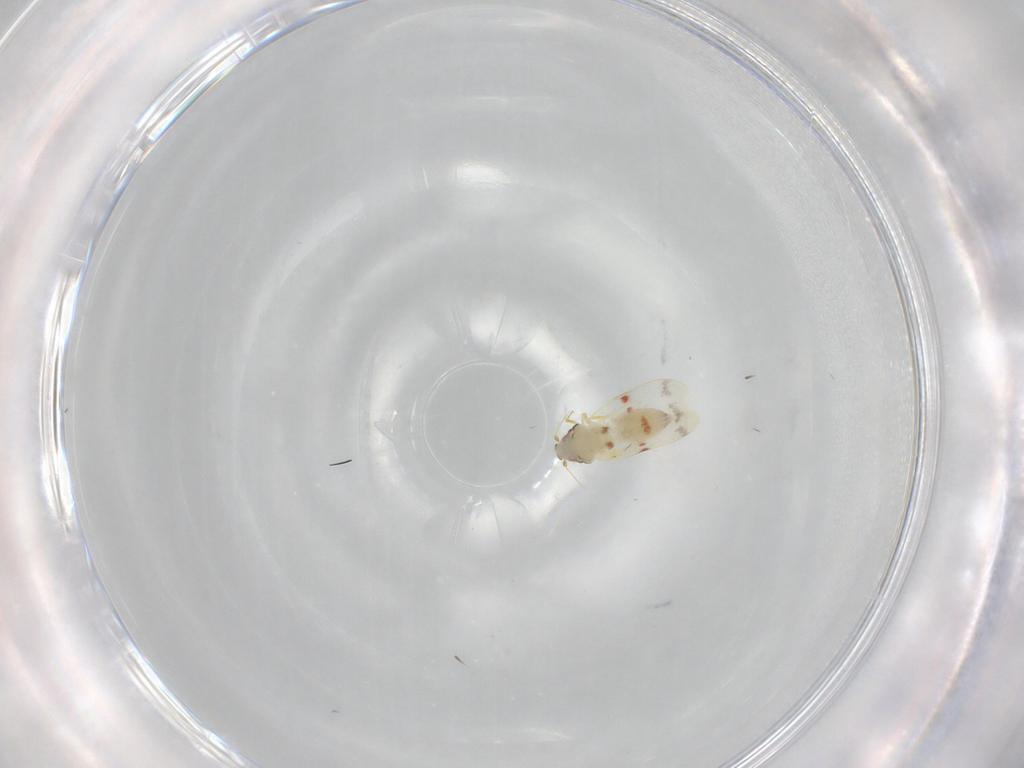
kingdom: Animalia
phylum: Arthropoda
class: Insecta
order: Hemiptera
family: Aleyrodidae
